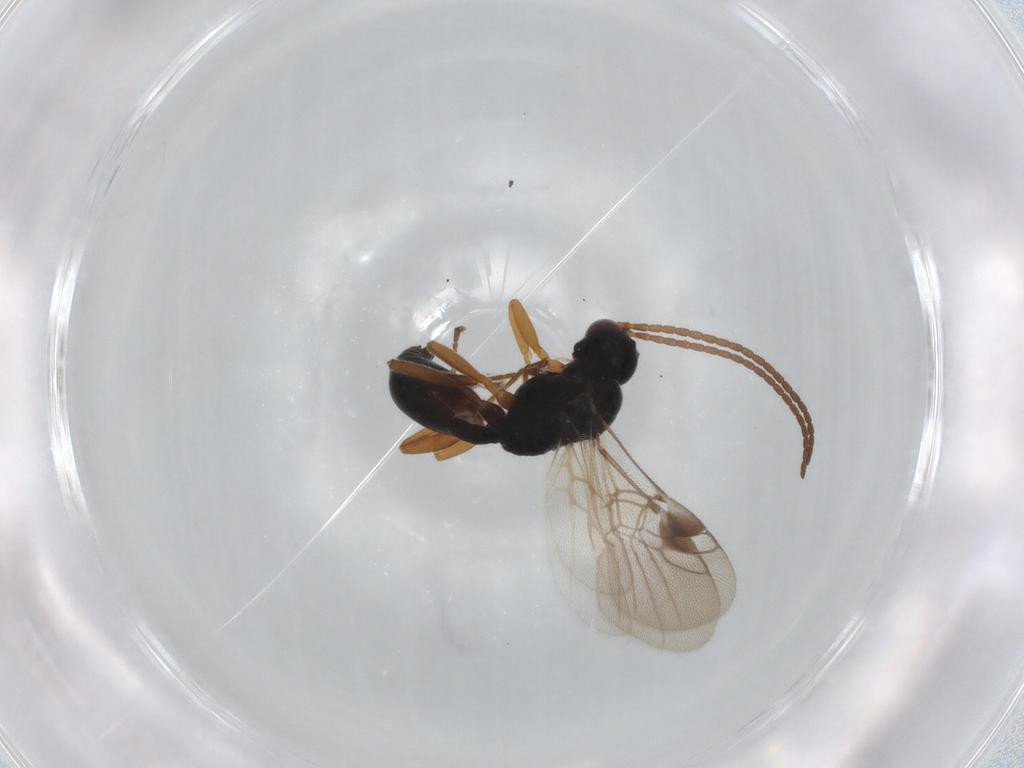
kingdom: Animalia
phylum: Arthropoda
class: Insecta
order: Hymenoptera
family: Braconidae
